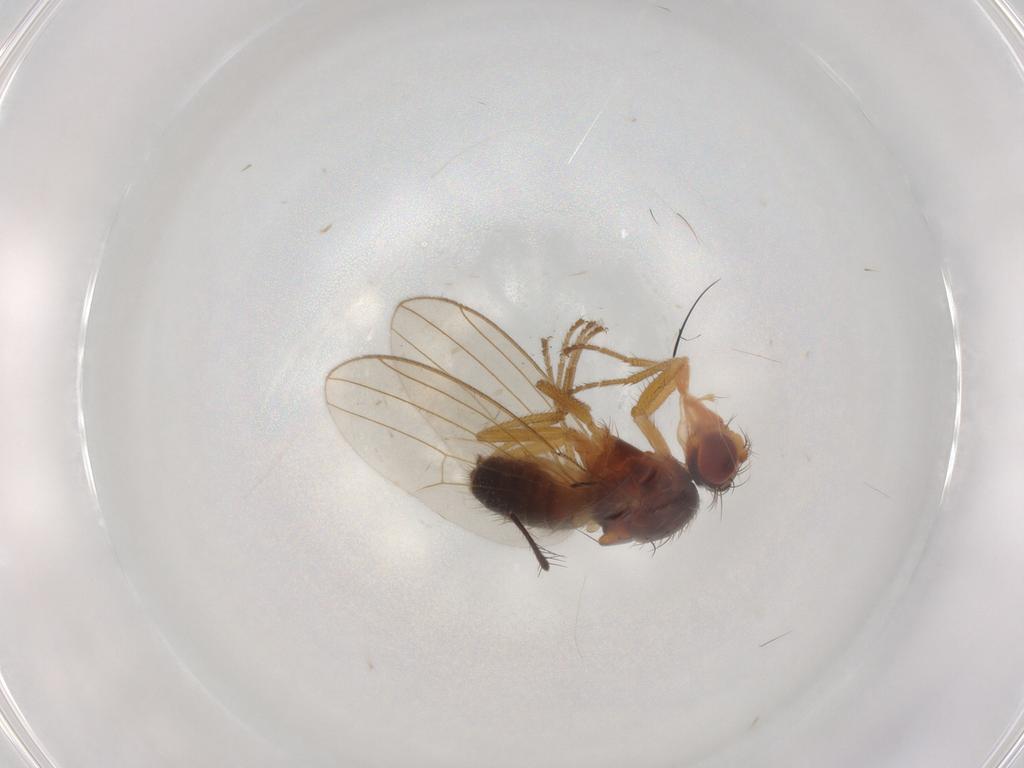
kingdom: Animalia
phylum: Arthropoda
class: Insecta
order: Diptera
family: Drosophilidae
